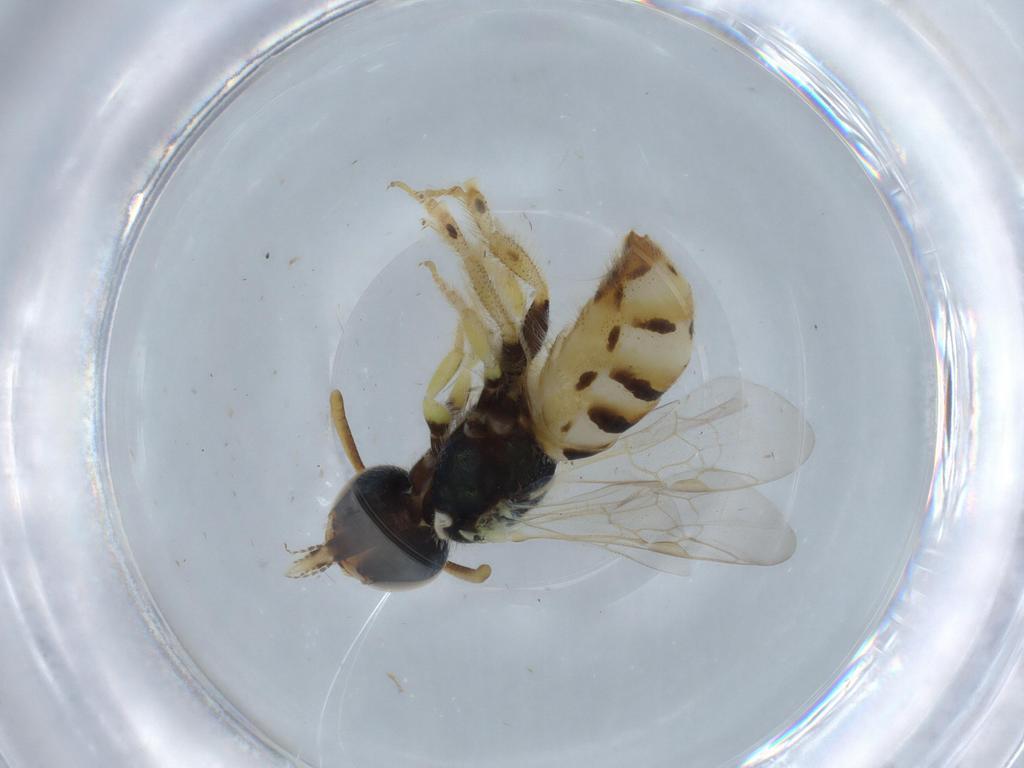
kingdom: Animalia
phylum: Arthropoda
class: Insecta
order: Hymenoptera
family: Halictidae
